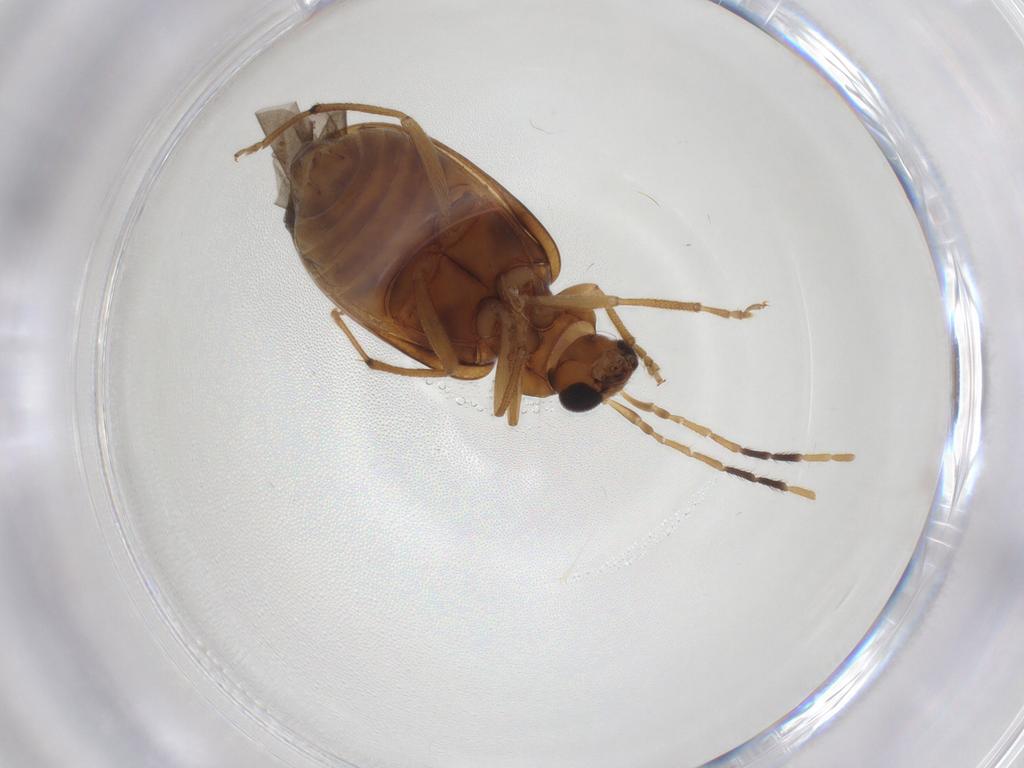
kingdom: Animalia
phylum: Arthropoda
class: Insecta
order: Coleoptera
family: Chrysomelidae
